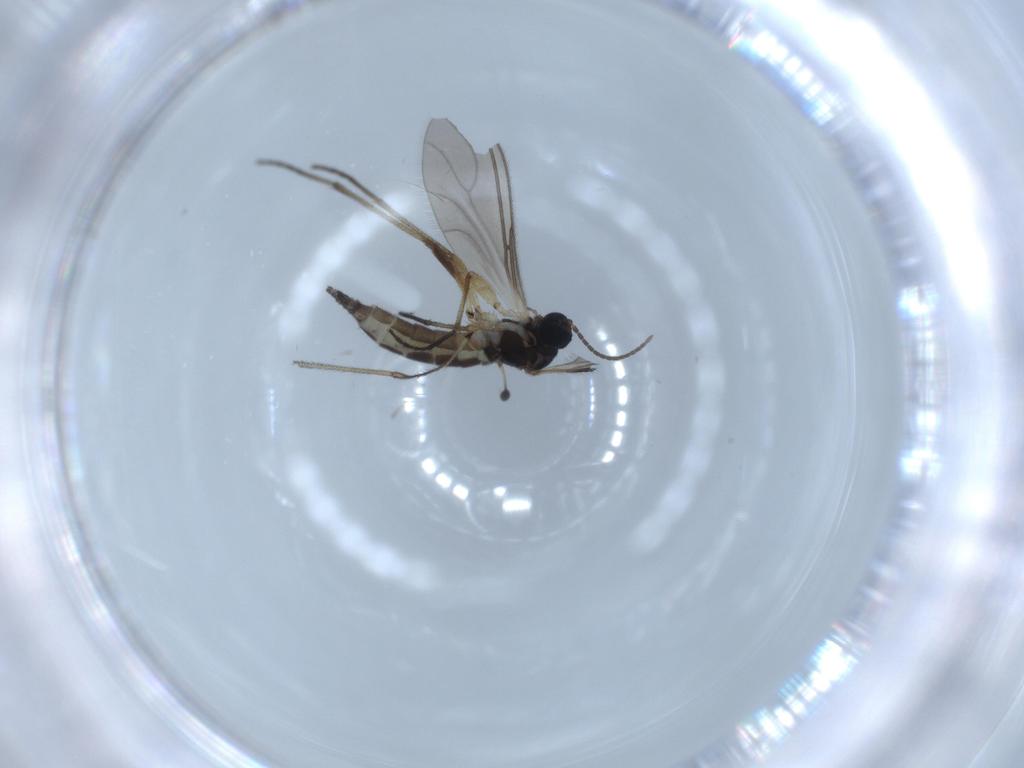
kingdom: Animalia
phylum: Arthropoda
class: Insecta
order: Diptera
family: Sciaridae
